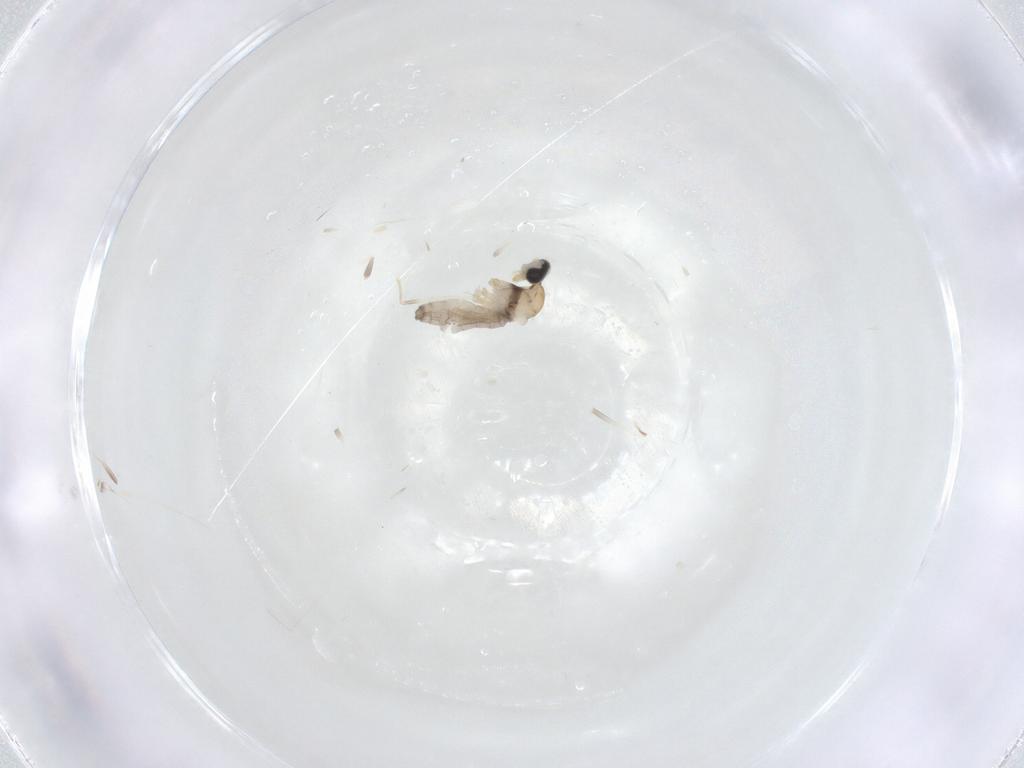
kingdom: Animalia
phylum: Arthropoda
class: Insecta
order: Diptera
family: Cecidomyiidae
